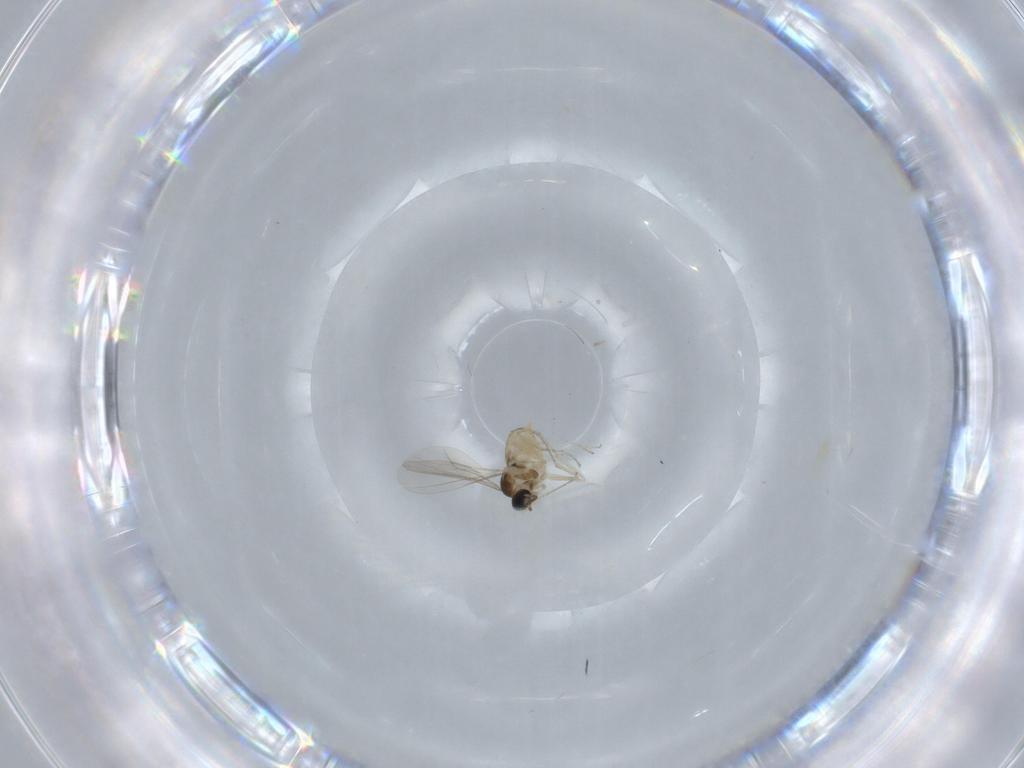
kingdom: Animalia
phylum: Arthropoda
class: Insecta
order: Diptera
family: Cecidomyiidae
